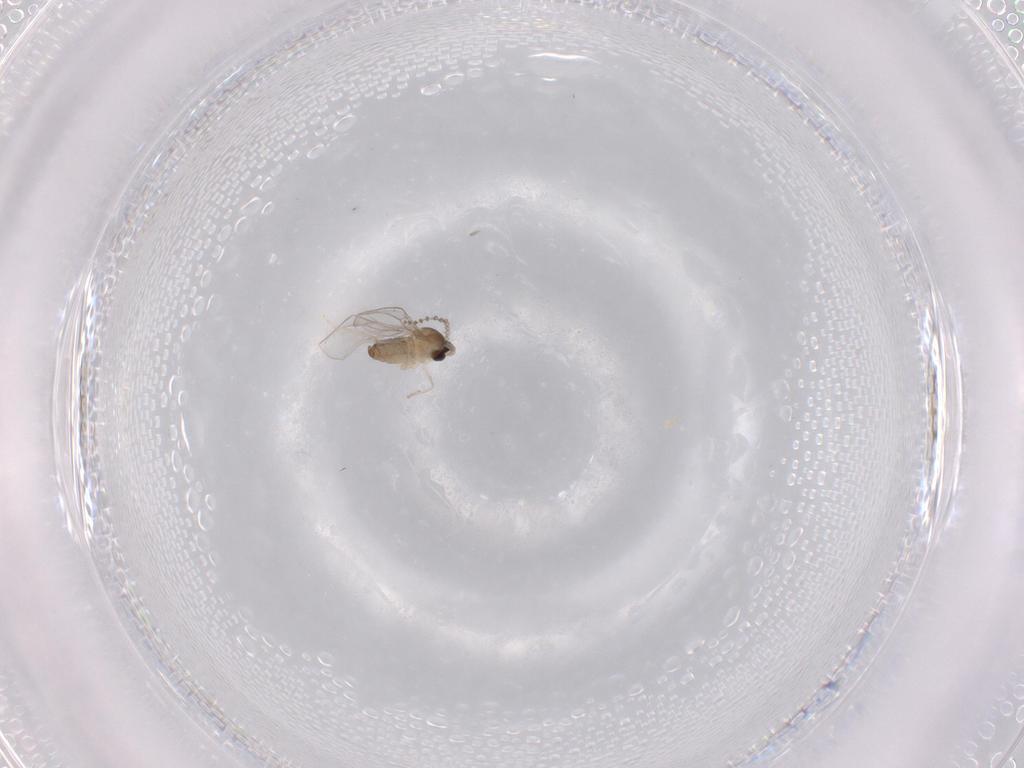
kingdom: Animalia
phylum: Arthropoda
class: Insecta
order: Diptera
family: Cecidomyiidae
